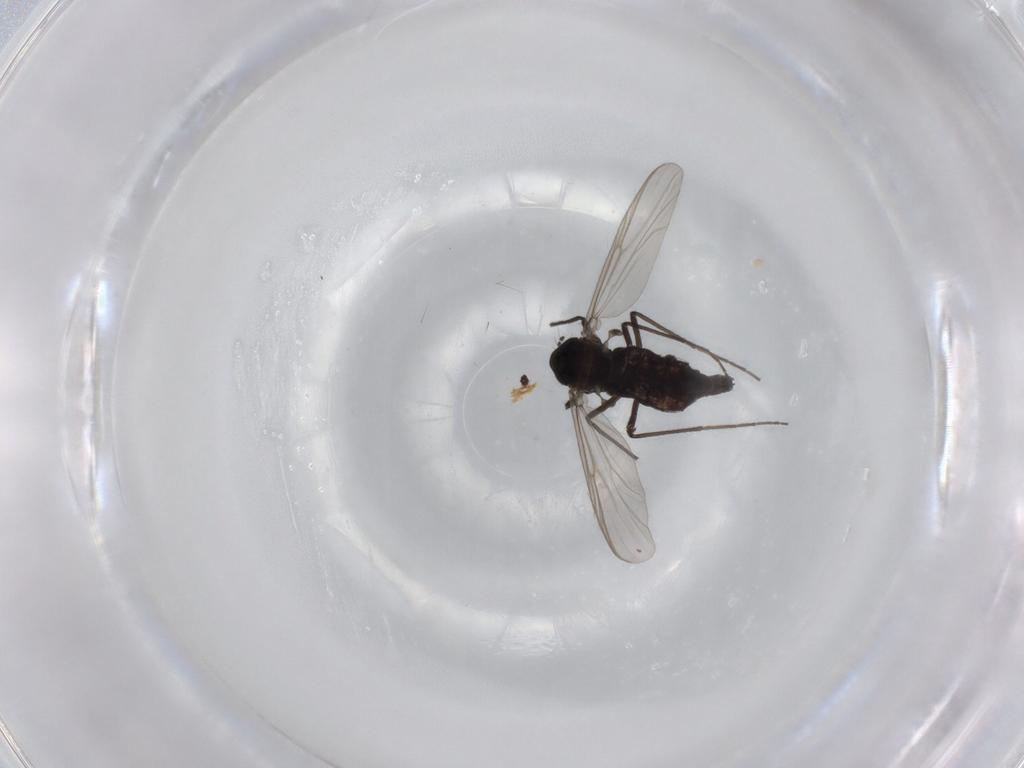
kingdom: Animalia
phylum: Arthropoda
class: Insecta
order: Diptera
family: Chironomidae
